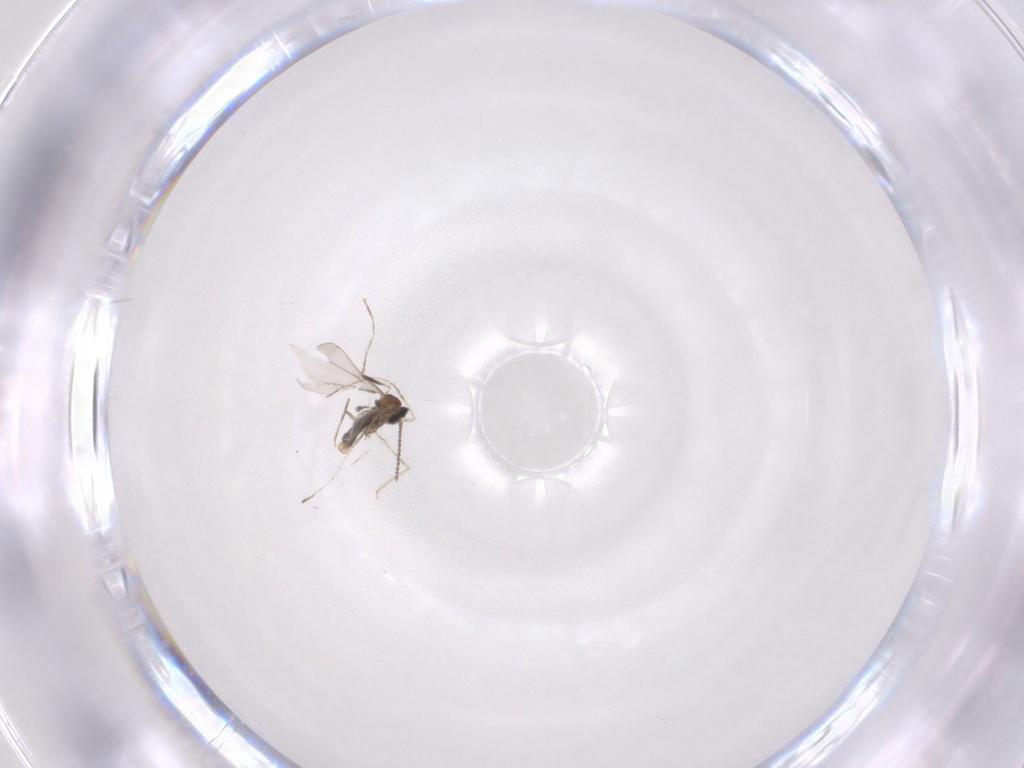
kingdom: Animalia
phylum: Arthropoda
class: Insecta
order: Diptera
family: Cecidomyiidae
